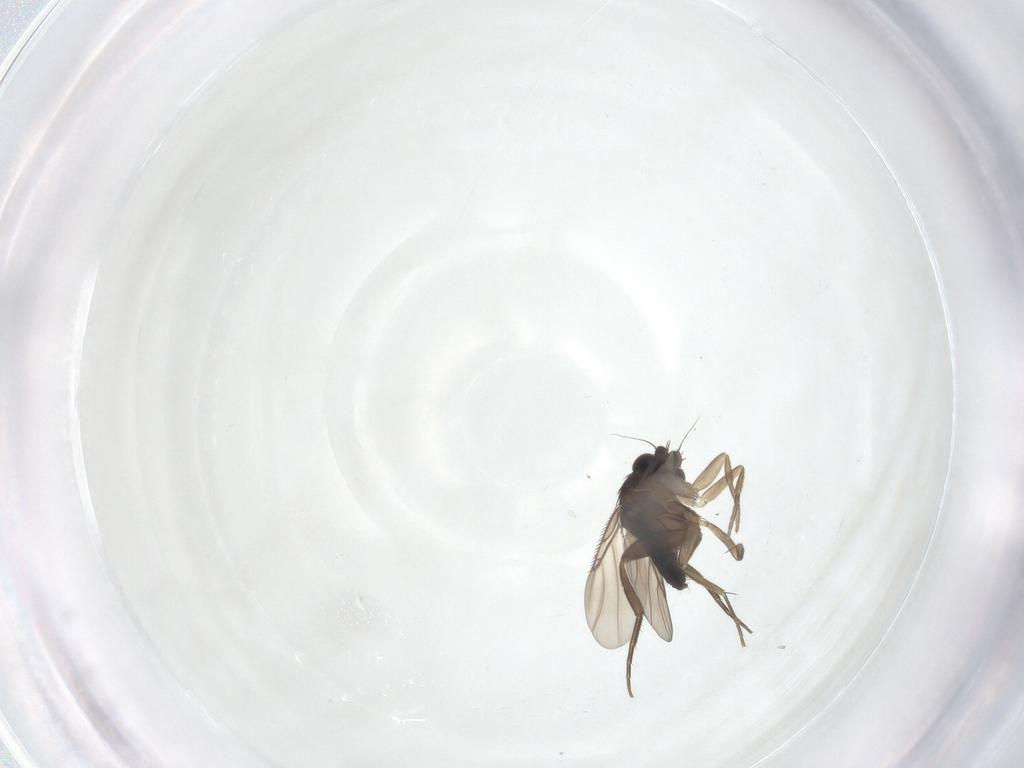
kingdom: Animalia
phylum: Arthropoda
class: Insecta
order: Diptera
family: Phoridae
